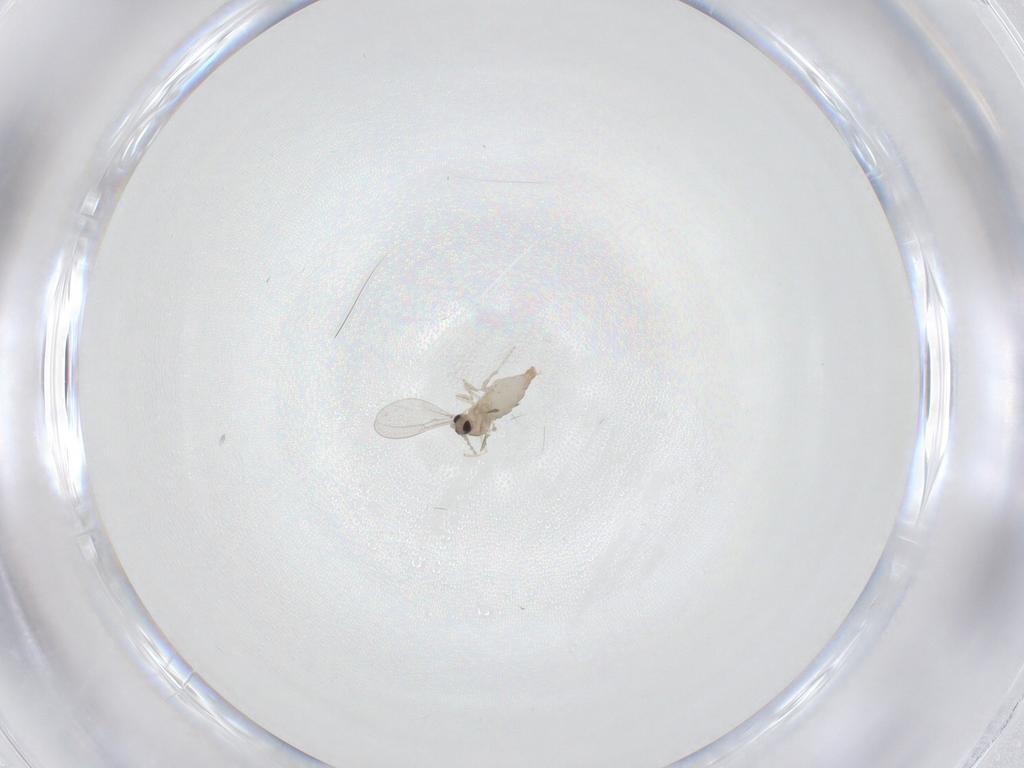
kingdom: Animalia
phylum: Arthropoda
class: Insecta
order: Diptera
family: Cecidomyiidae
